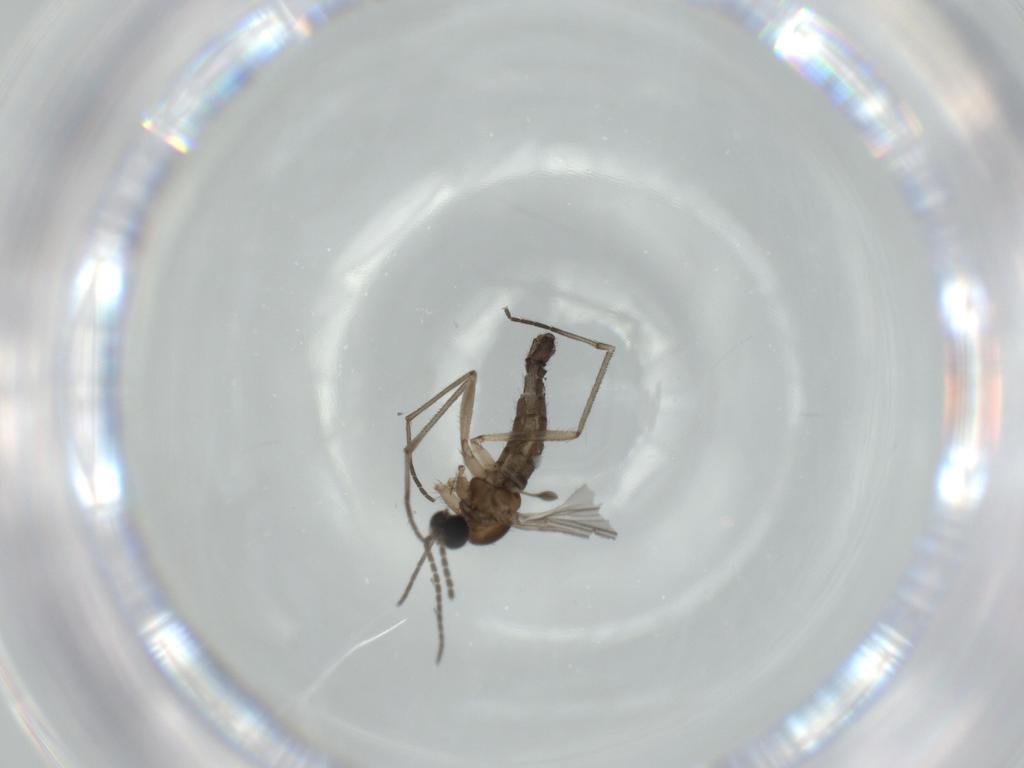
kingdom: Animalia
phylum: Arthropoda
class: Insecta
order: Diptera
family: Sciaridae
